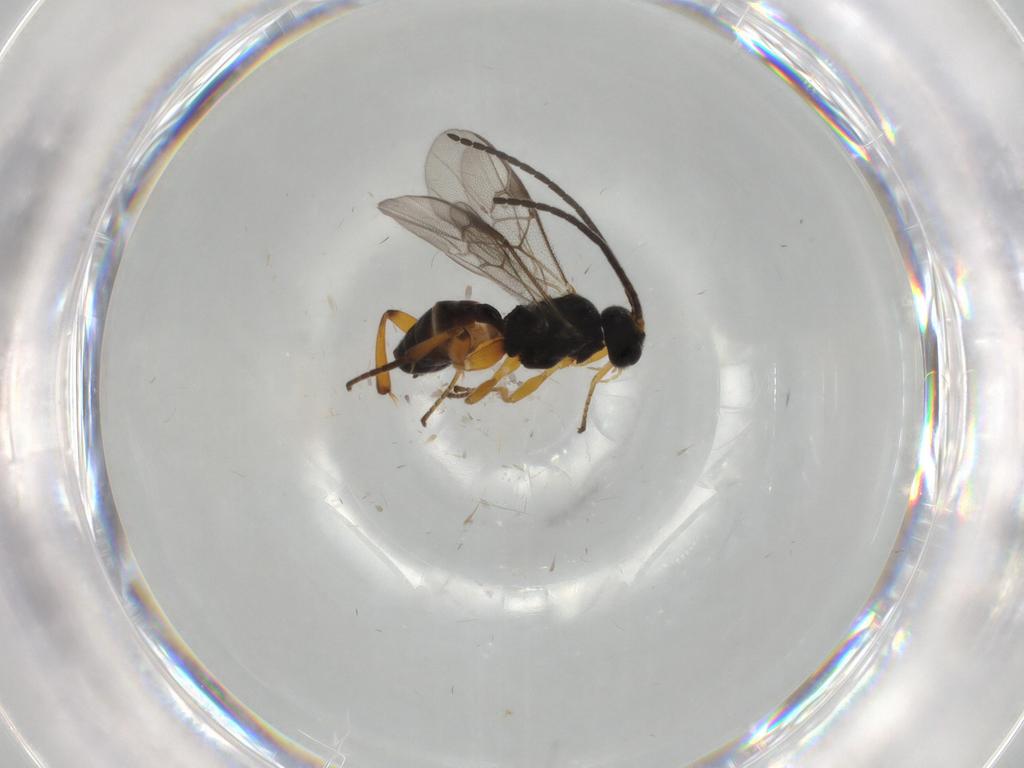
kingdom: Animalia
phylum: Arthropoda
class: Insecta
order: Hymenoptera
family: Braconidae
